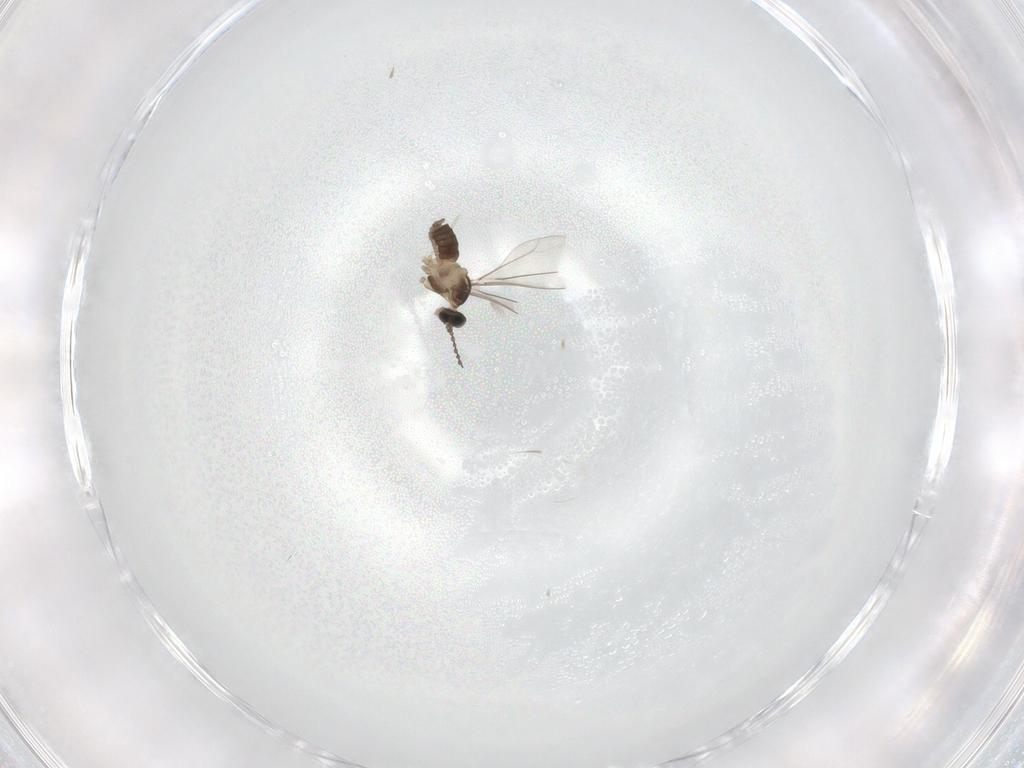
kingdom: Animalia
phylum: Arthropoda
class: Insecta
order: Diptera
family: Cecidomyiidae
